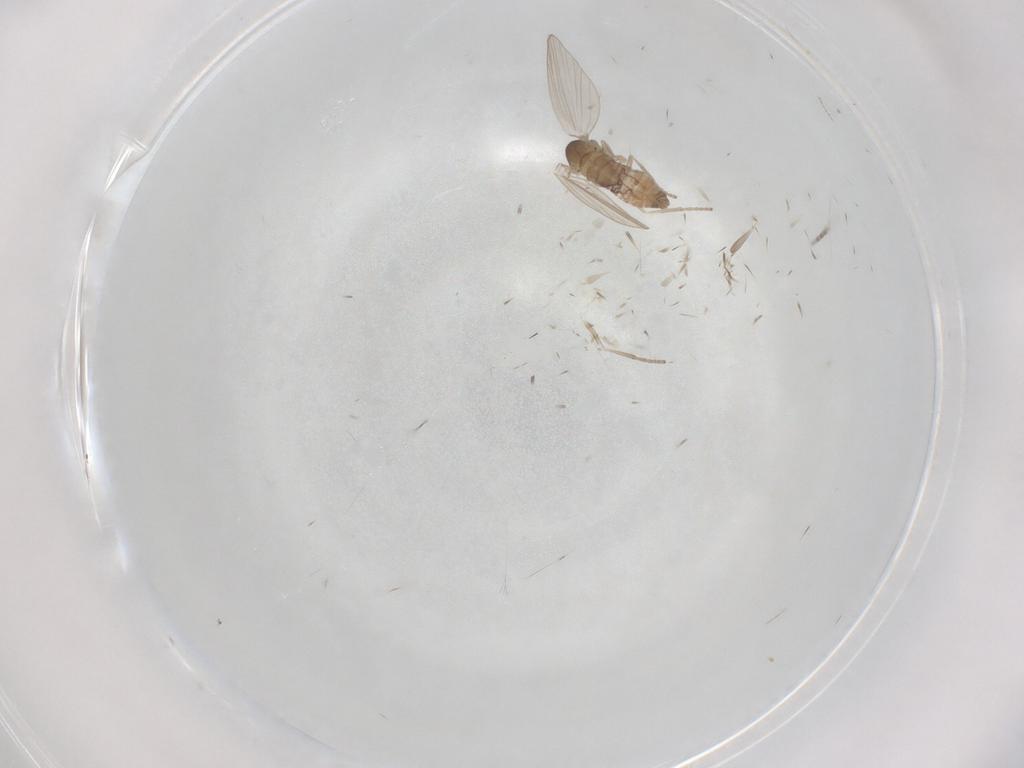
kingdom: Animalia
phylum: Arthropoda
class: Insecta
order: Diptera
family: Psychodidae
